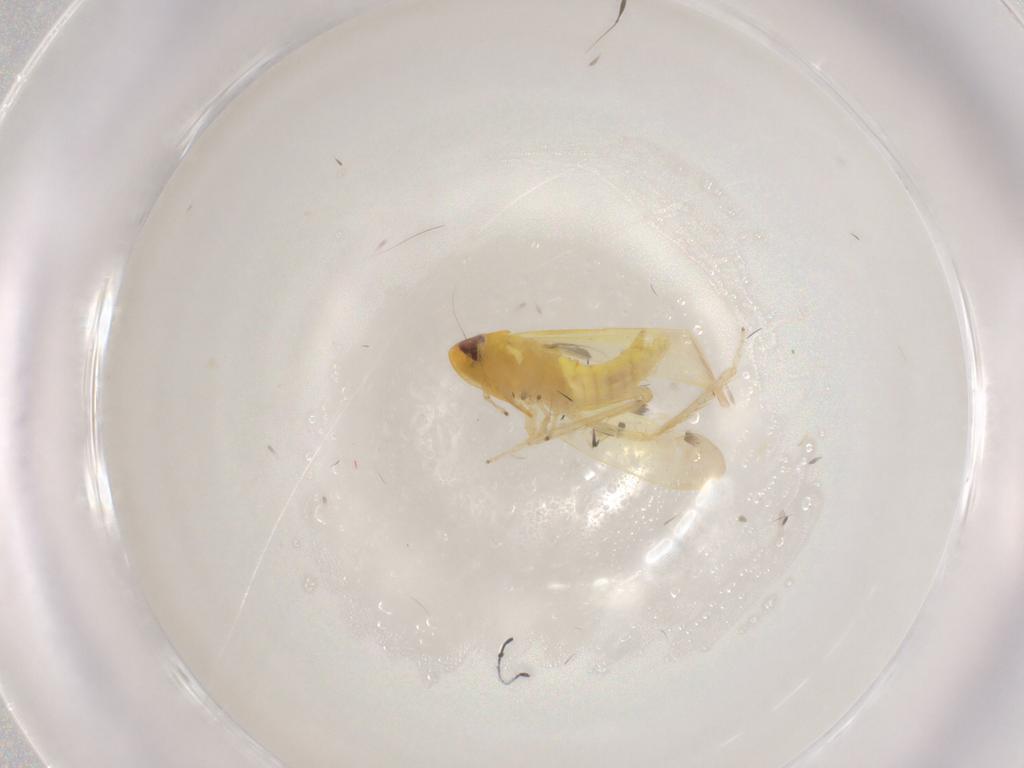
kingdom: Animalia
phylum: Arthropoda
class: Insecta
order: Hemiptera
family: Cicadellidae
